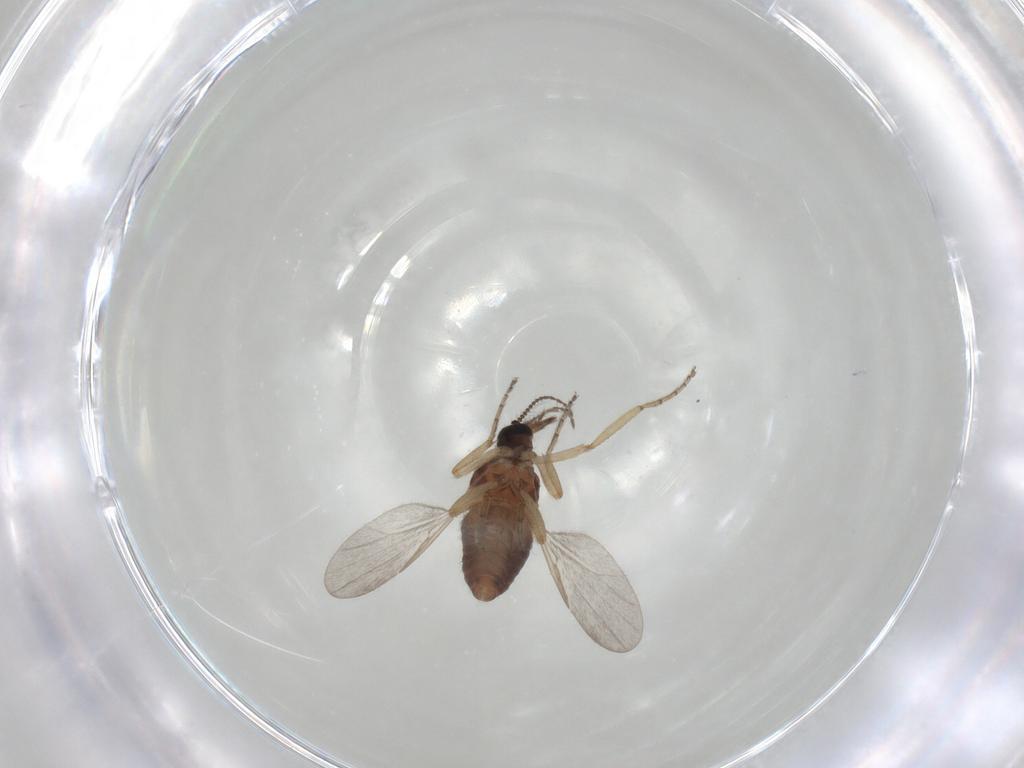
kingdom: Animalia
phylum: Arthropoda
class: Insecta
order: Diptera
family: Ceratopogonidae
